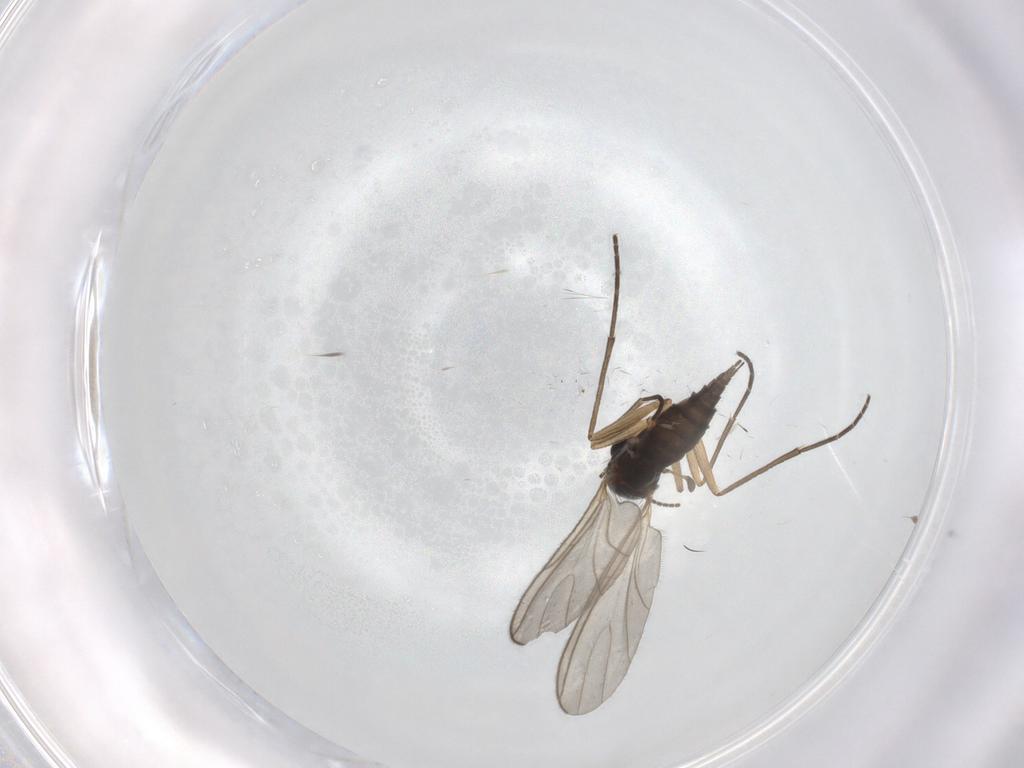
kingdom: Animalia
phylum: Arthropoda
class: Insecta
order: Diptera
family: Sciaridae
